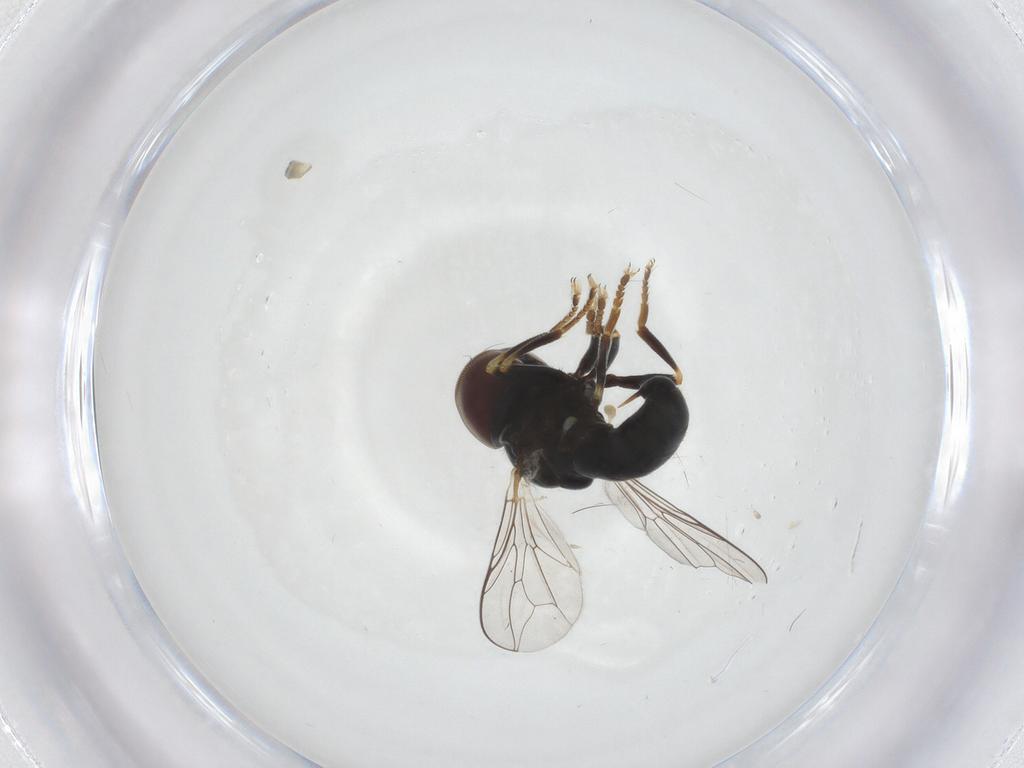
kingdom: Animalia
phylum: Arthropoda
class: Insecta
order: Diptera
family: Pipunculidae
